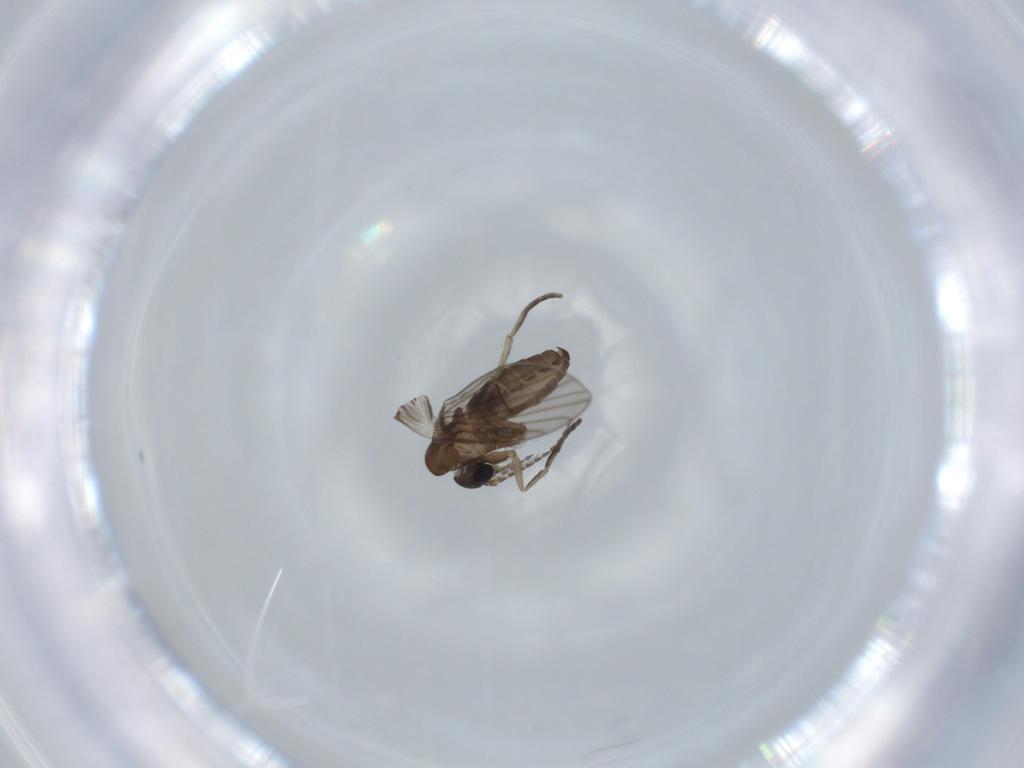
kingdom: Animalia
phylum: Arthropoda
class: Insecta
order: Diptera
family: Psychodidae
